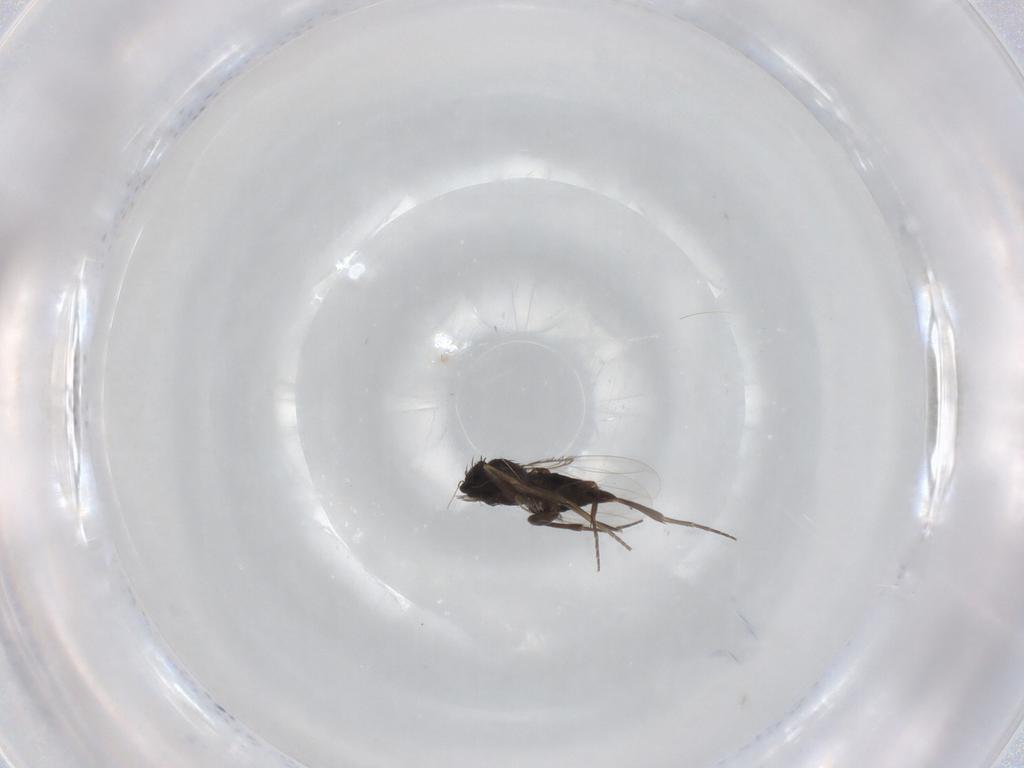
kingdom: Animalia
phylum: Arthropoda
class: Insecta
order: Diptera
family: Phoridae
